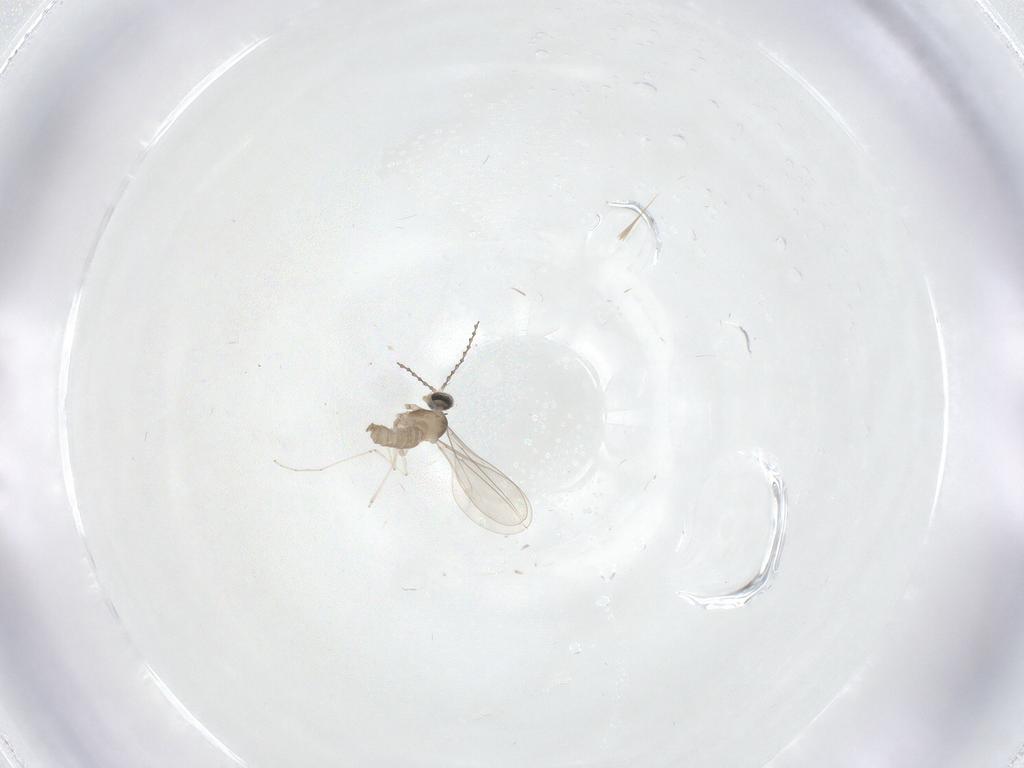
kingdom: Animalia
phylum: Arthropoda
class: Insecta
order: Diptera
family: Chironomidae
